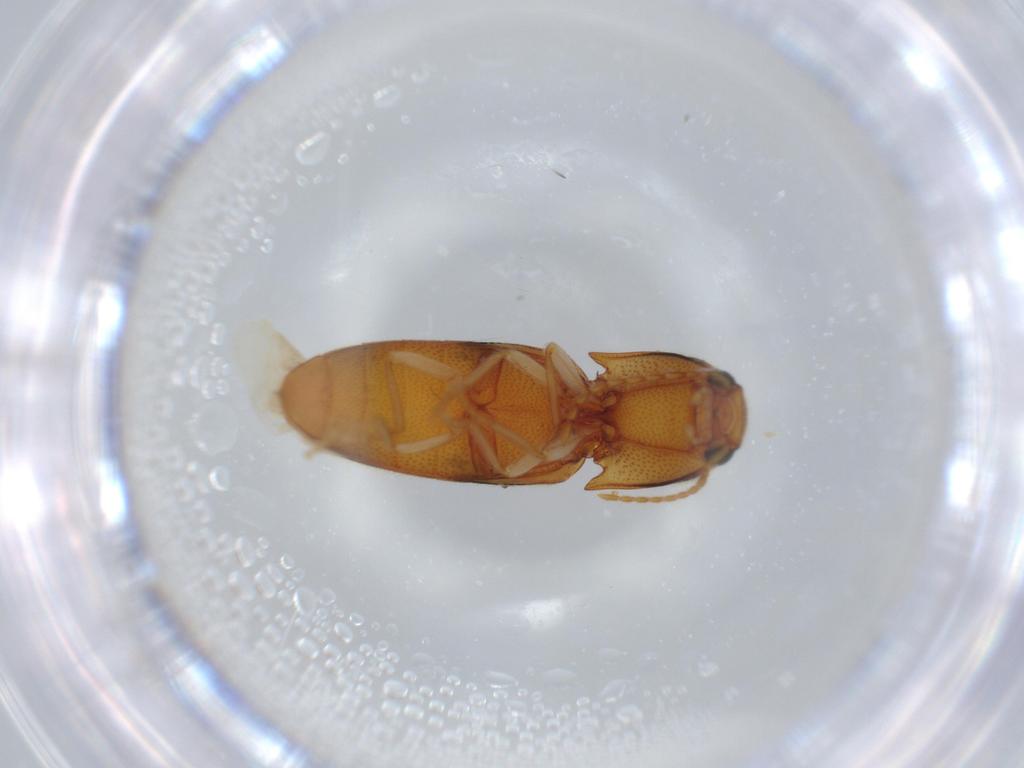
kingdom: Animalia
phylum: Arthropoda
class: Insecta
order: Coleoptera
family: Elateridae
